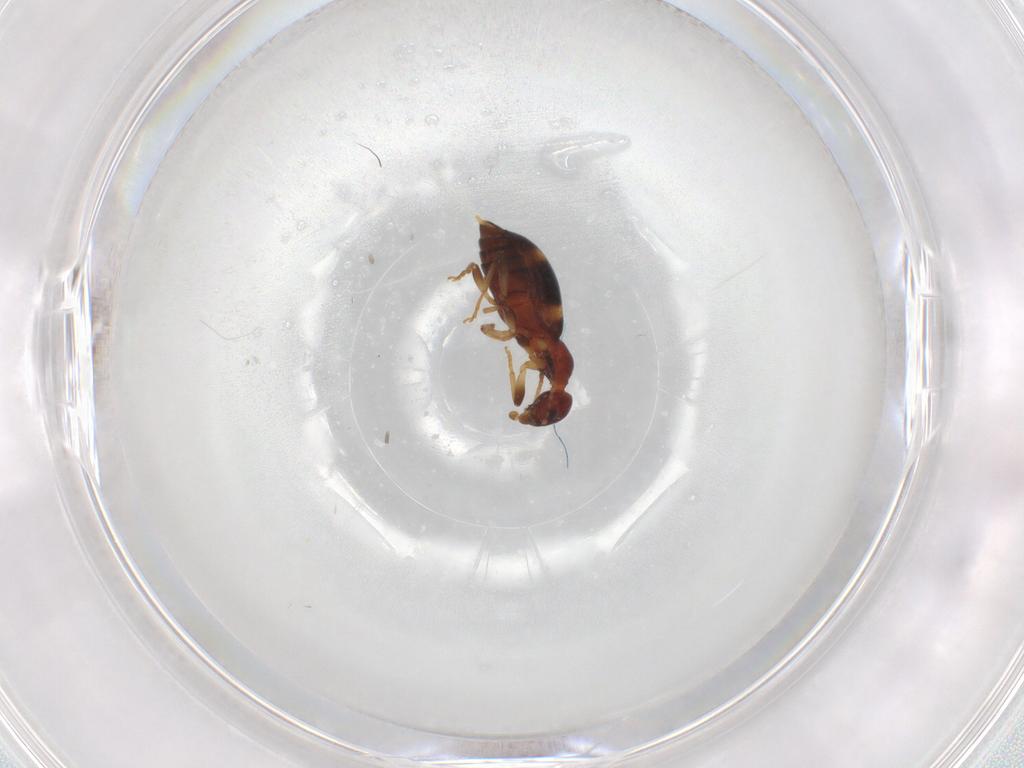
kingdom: Animalia
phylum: Arthropoda
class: Insecta
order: Coleoptera
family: Anthicidae
